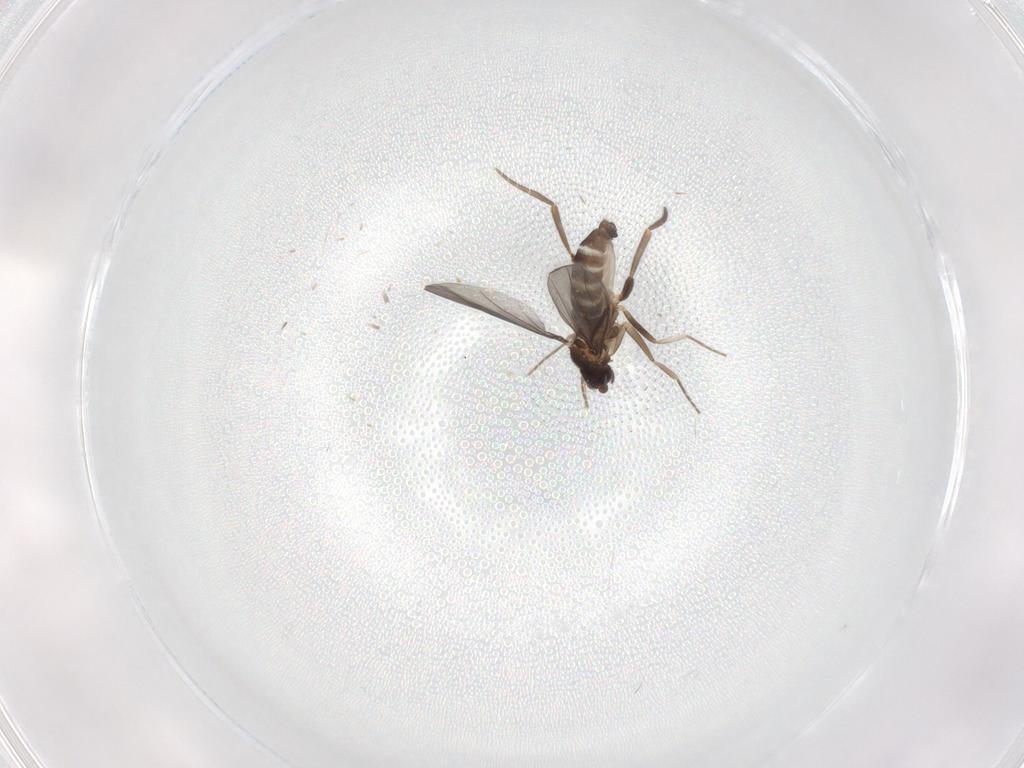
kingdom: Animalia
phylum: Arthropoda
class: Insecta
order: Diptera
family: Phoridae
